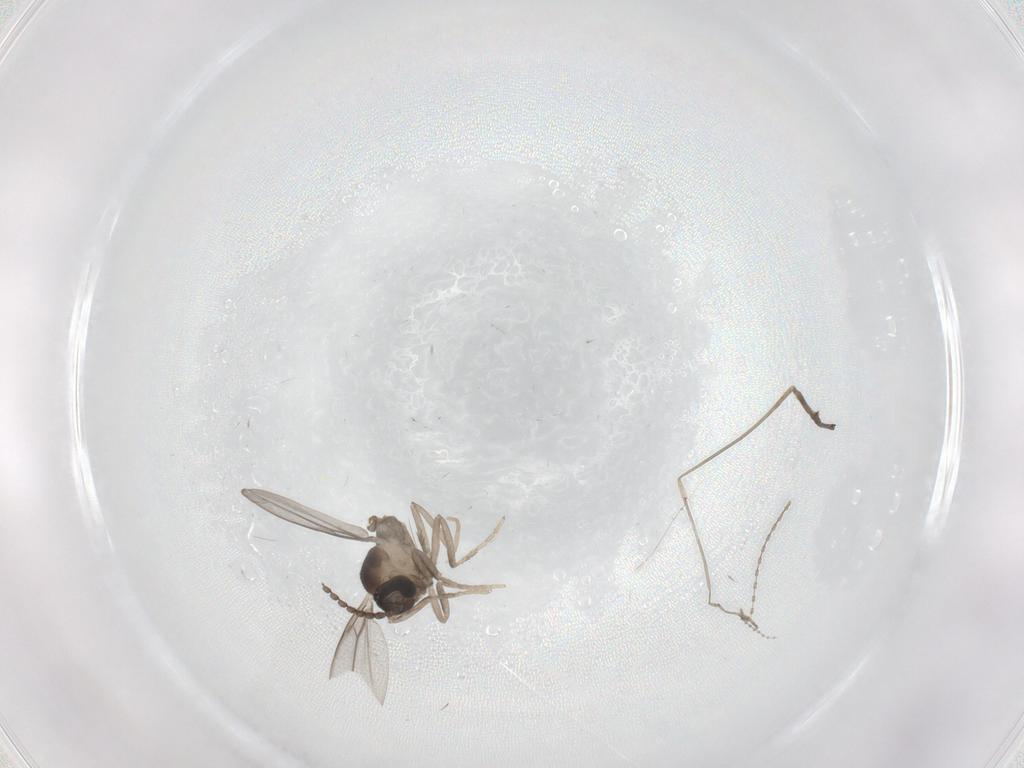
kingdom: Animalia
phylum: Arthropoda
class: Insecta
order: Diptera
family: Cecidomyiidae
